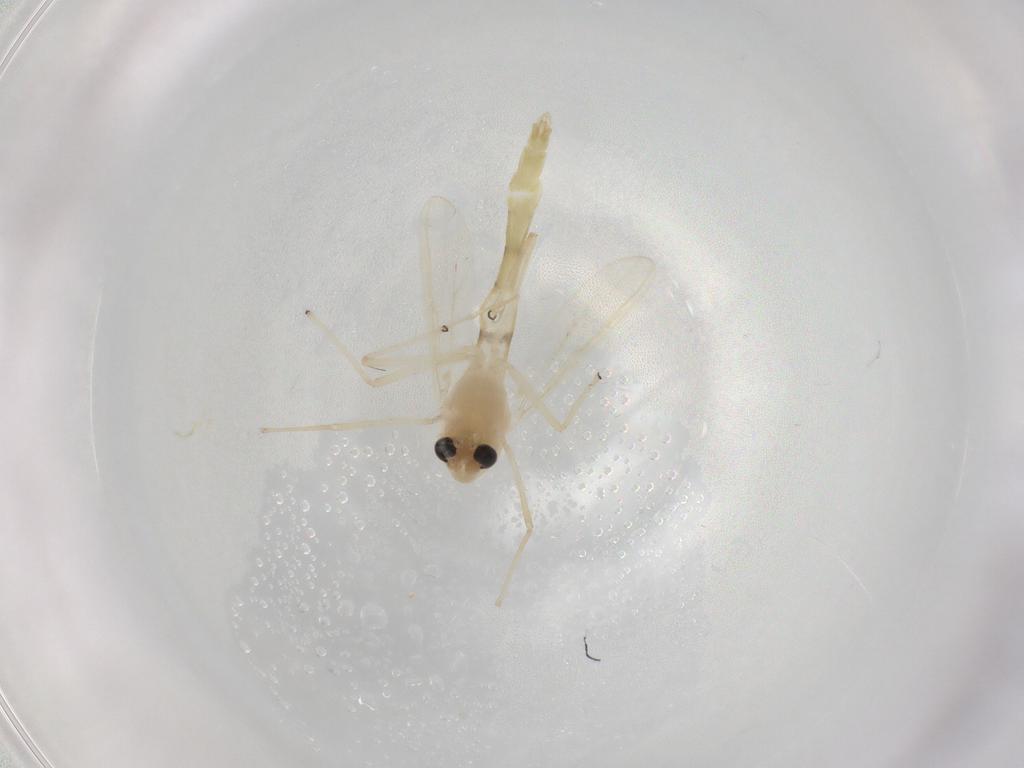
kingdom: Animalia
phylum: Arthropoda
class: Insecta
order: Diptera
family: Chironomidae
